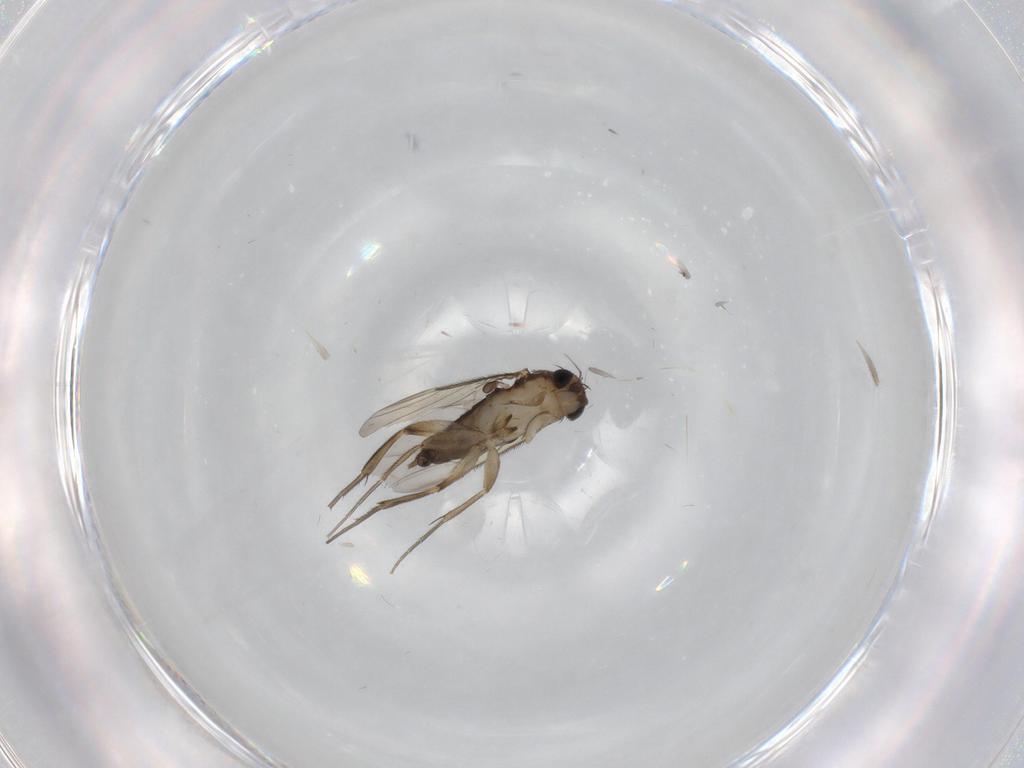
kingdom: Animalia
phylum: Arthropoda
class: Insecta
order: Diptera
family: Phoridae
